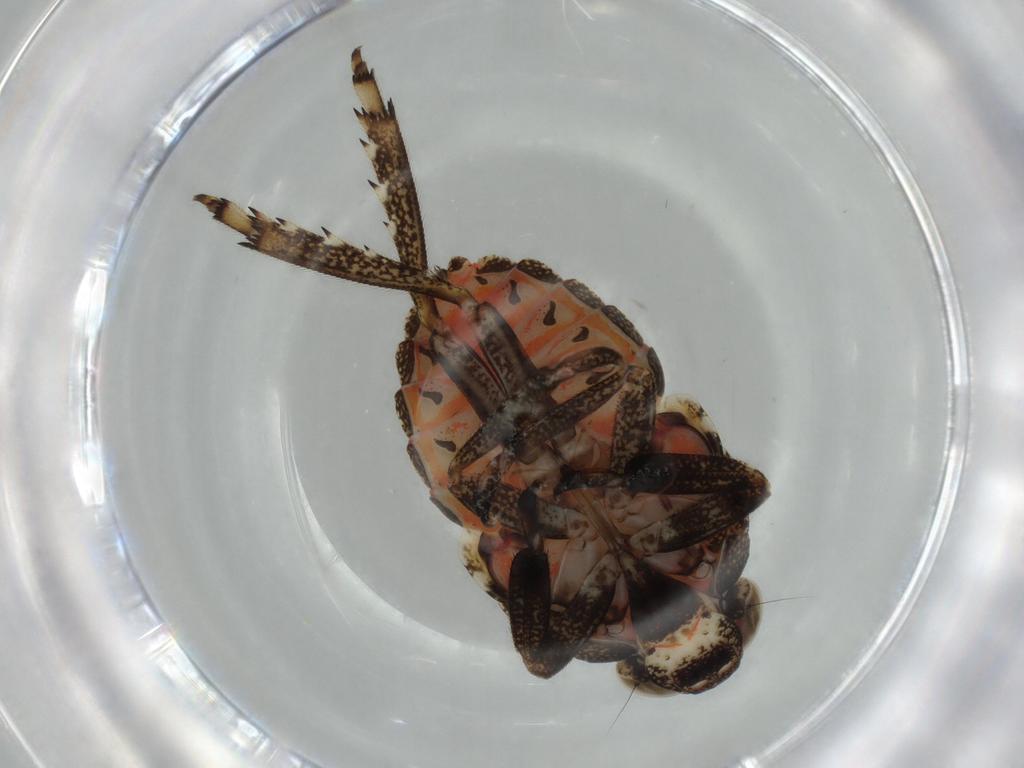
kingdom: Animalia
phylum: Arthropoda
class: Insecta
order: Hemiptera
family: Issidae
